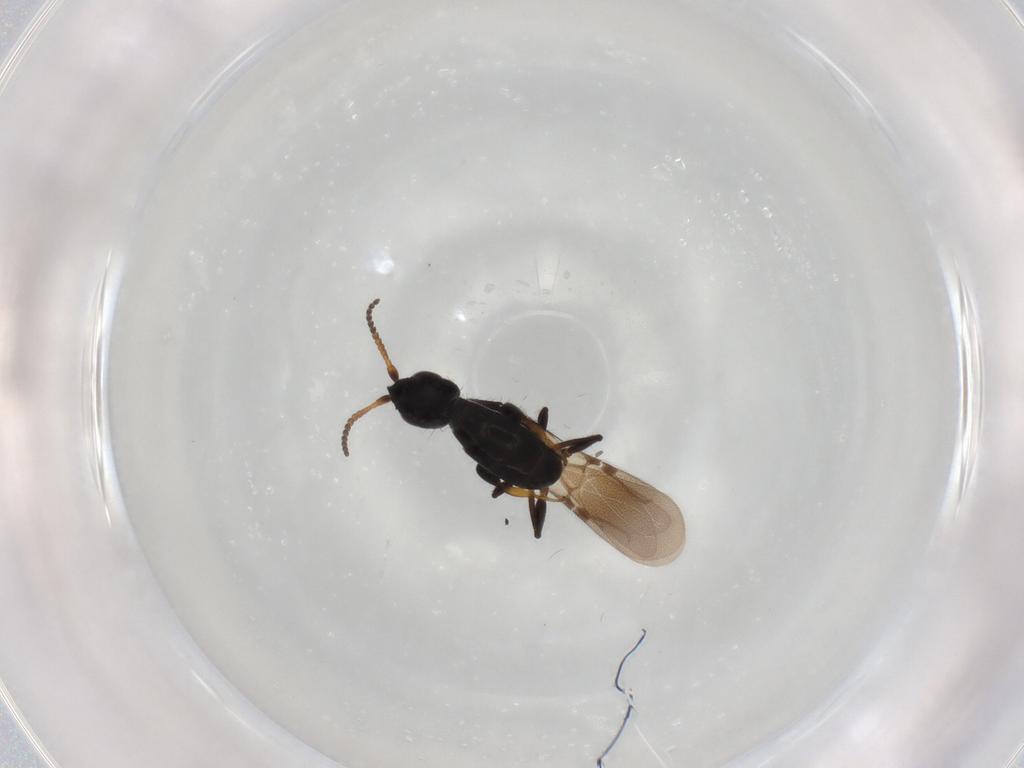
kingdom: Animalia
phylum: Arthropoda
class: Insecta
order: Hymenoptera
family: Bethylidae
